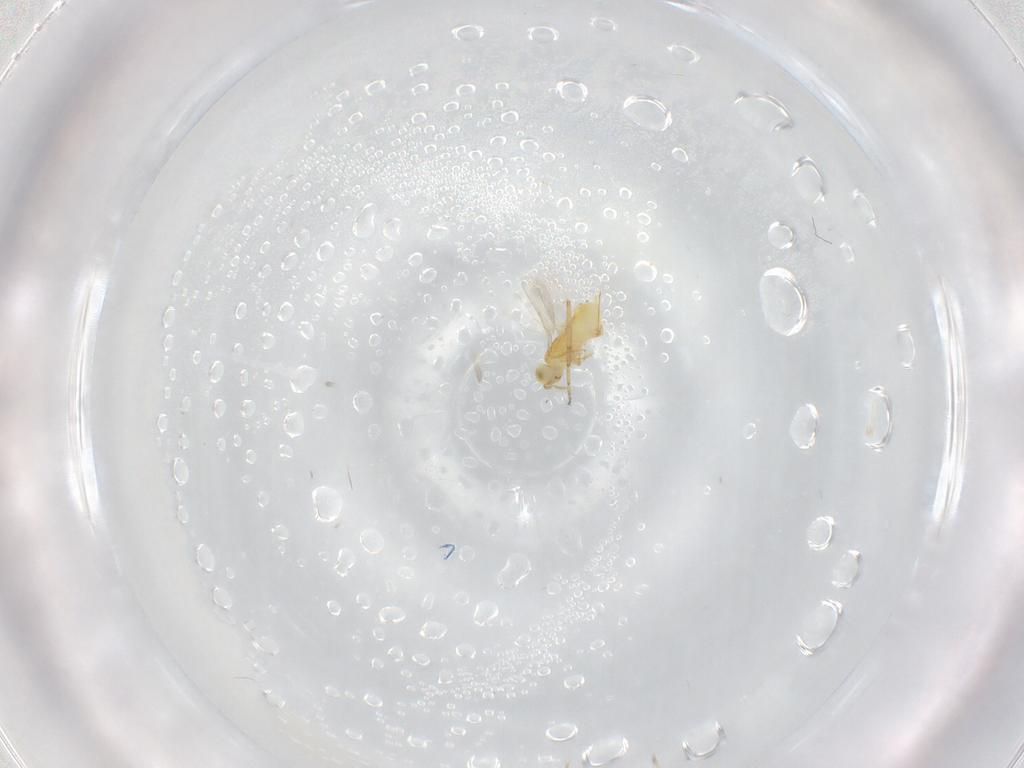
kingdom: Animalia
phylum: Arthropoda
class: Insecta
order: Hymenoptera
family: Aphelinidae
